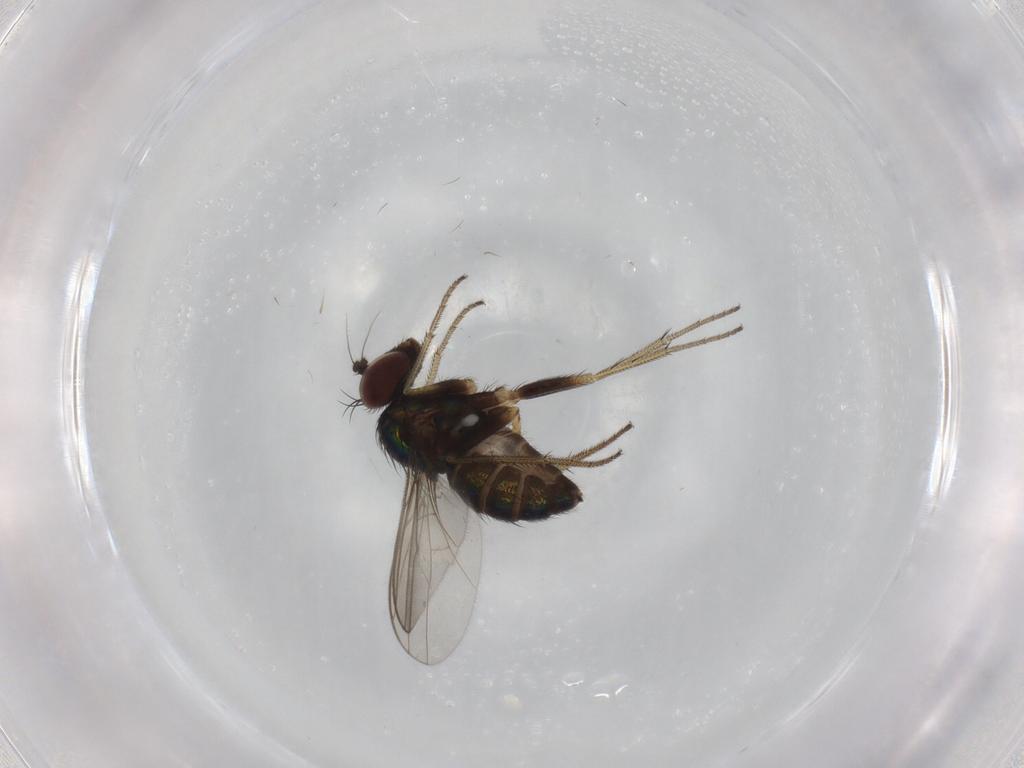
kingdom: Animalia
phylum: Arthropoda
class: Insecta
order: Diptera
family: Dolichopodidae
